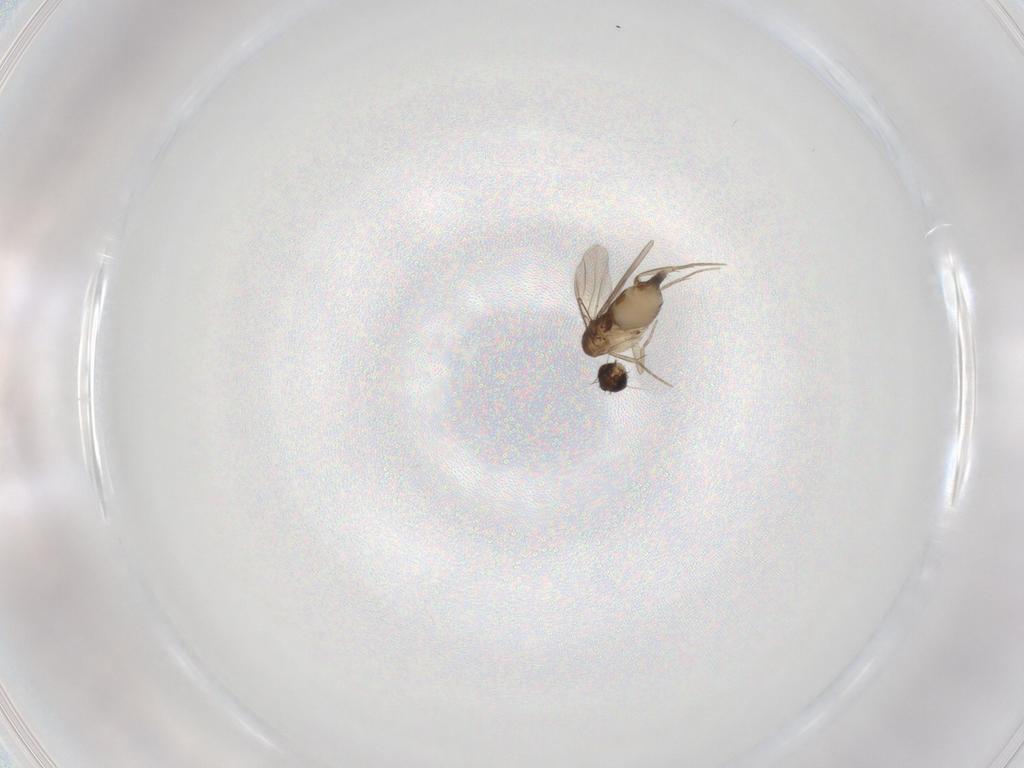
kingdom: Animalia
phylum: Arthropoda
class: Insecta
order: Diptera
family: Phoridae
